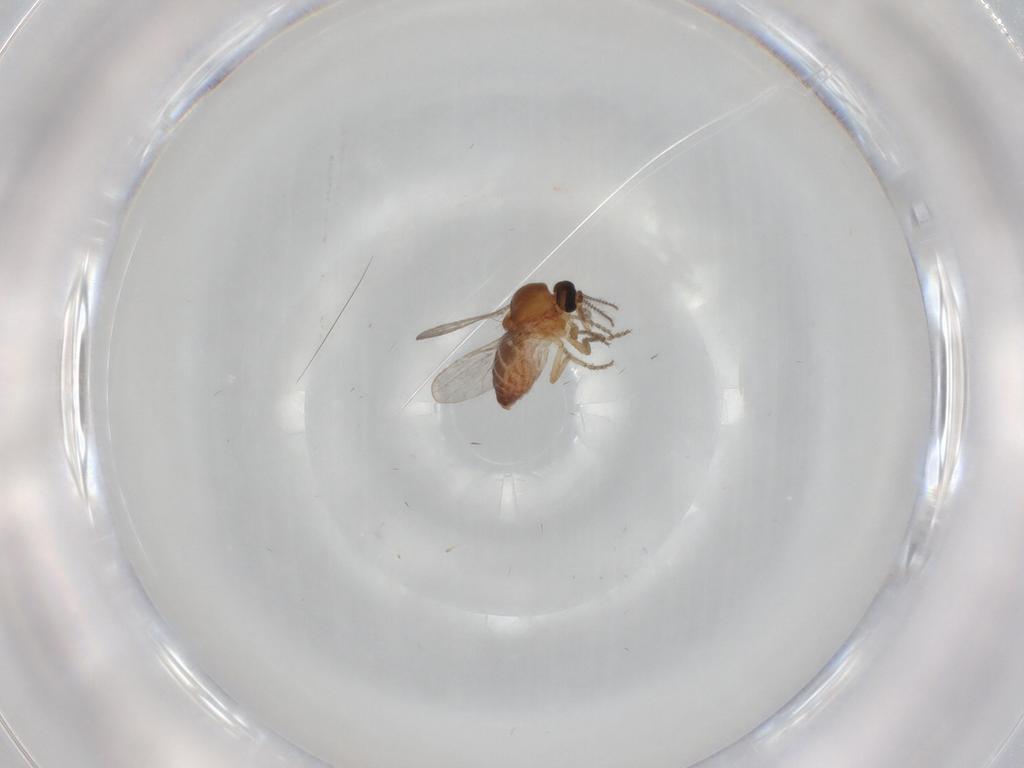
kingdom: Animalia
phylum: Arthropoda
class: Insecta
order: Diptera
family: Ceratopogonidae
